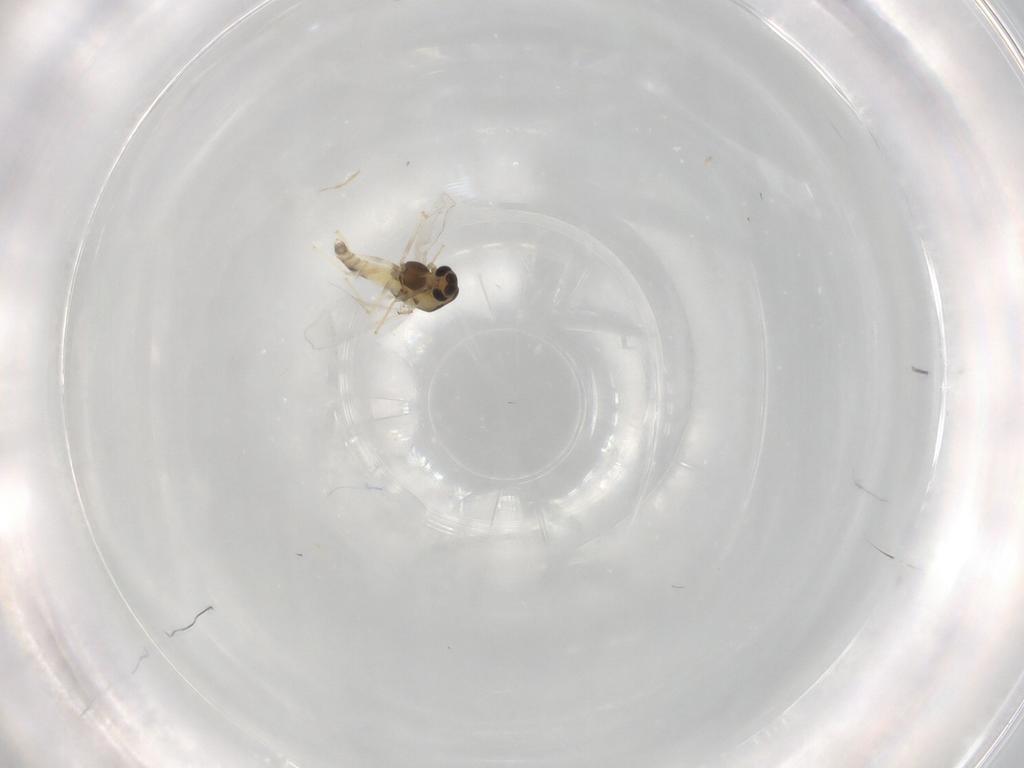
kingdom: Animalia
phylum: Arthropoda
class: Insecta
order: Diptera
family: Chironomidae
